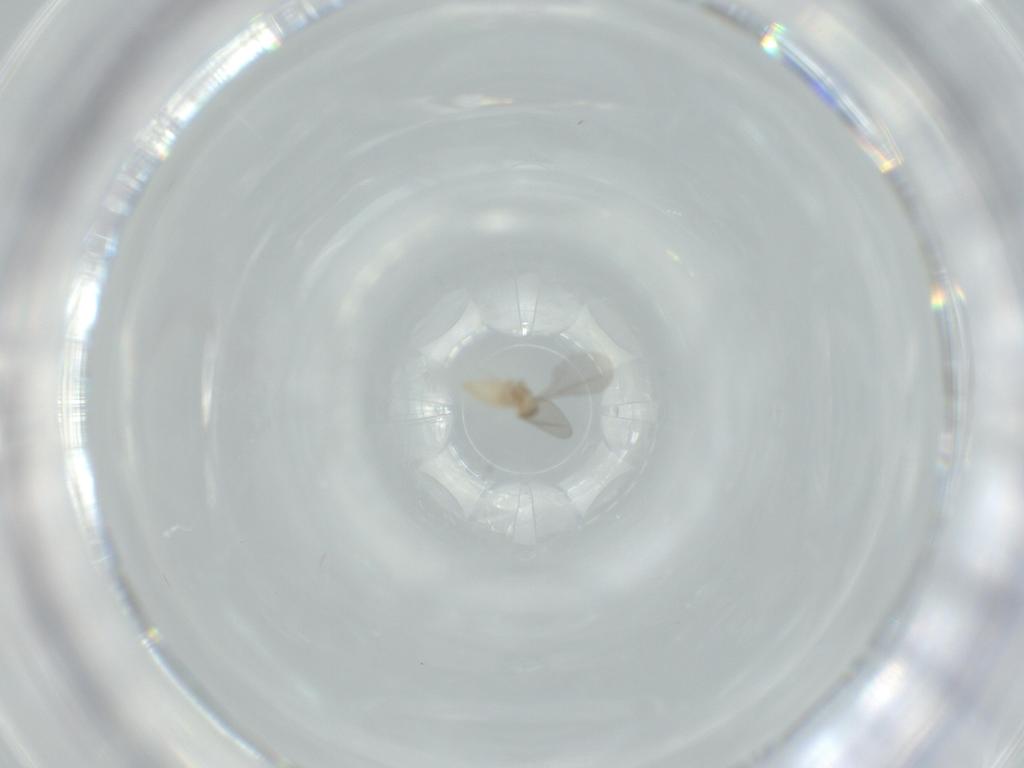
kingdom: Animalia
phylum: Arthropoda
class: Insecta
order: Diptera
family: Cecidomyiidae
